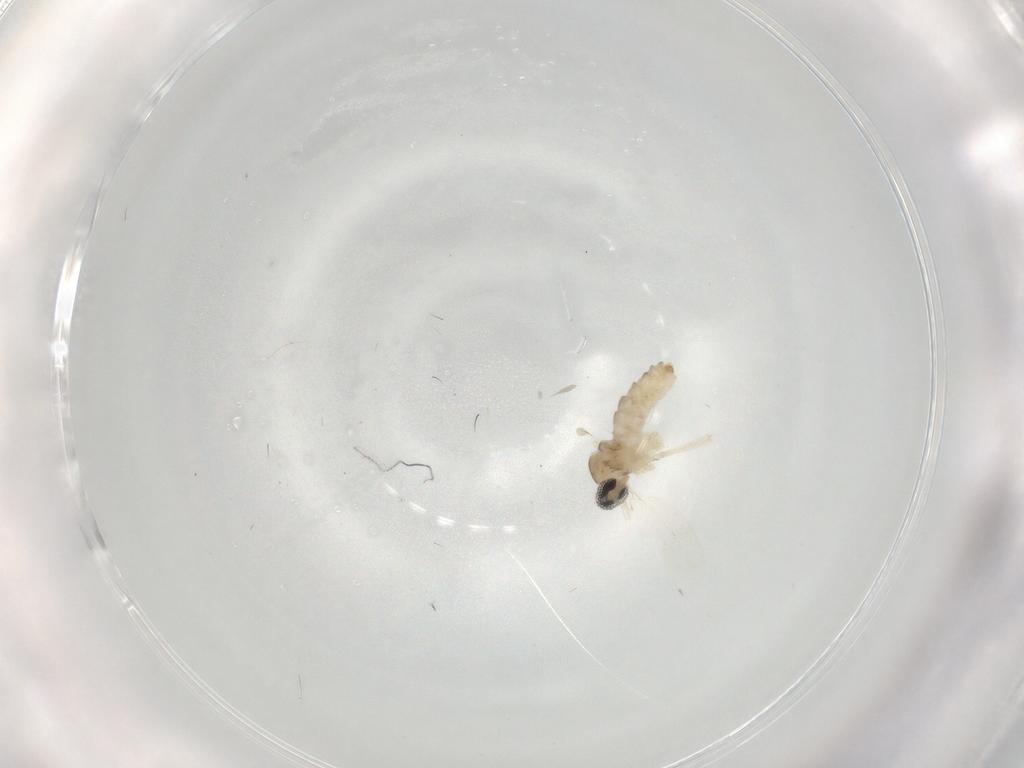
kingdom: Animalia
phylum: Arthropoda
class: Insecta
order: Diptera
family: Cecidomyiidae
